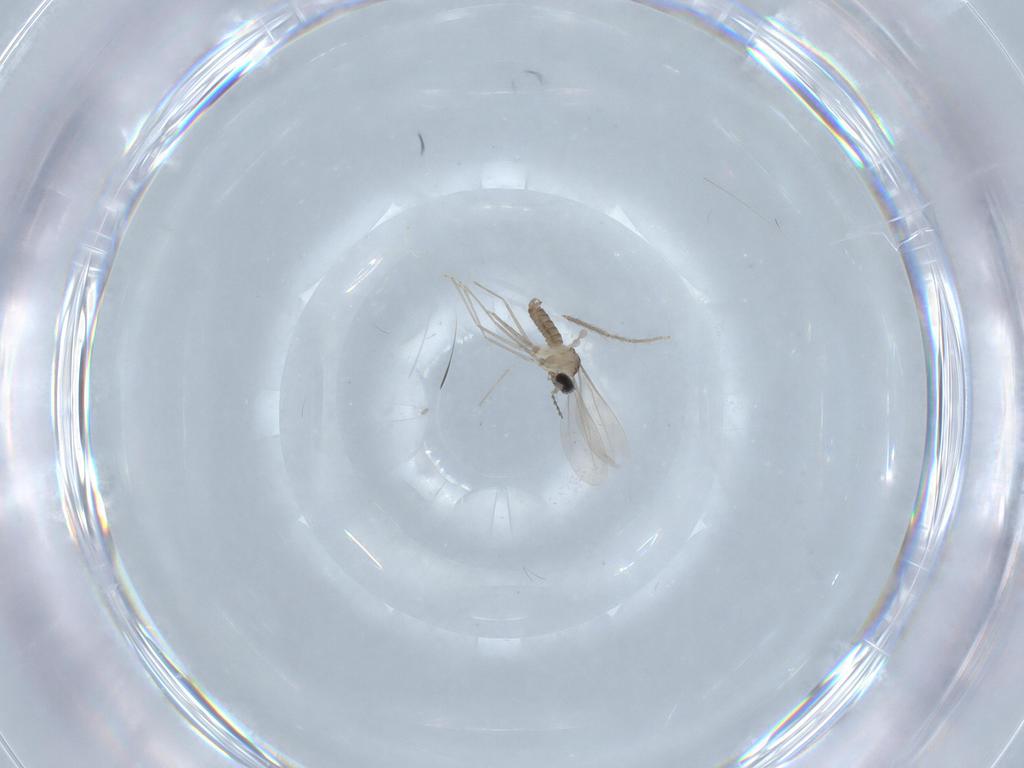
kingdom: Animalia
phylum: Arthropoda
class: Insecta
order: Diptera
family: Cecidomyiidae
